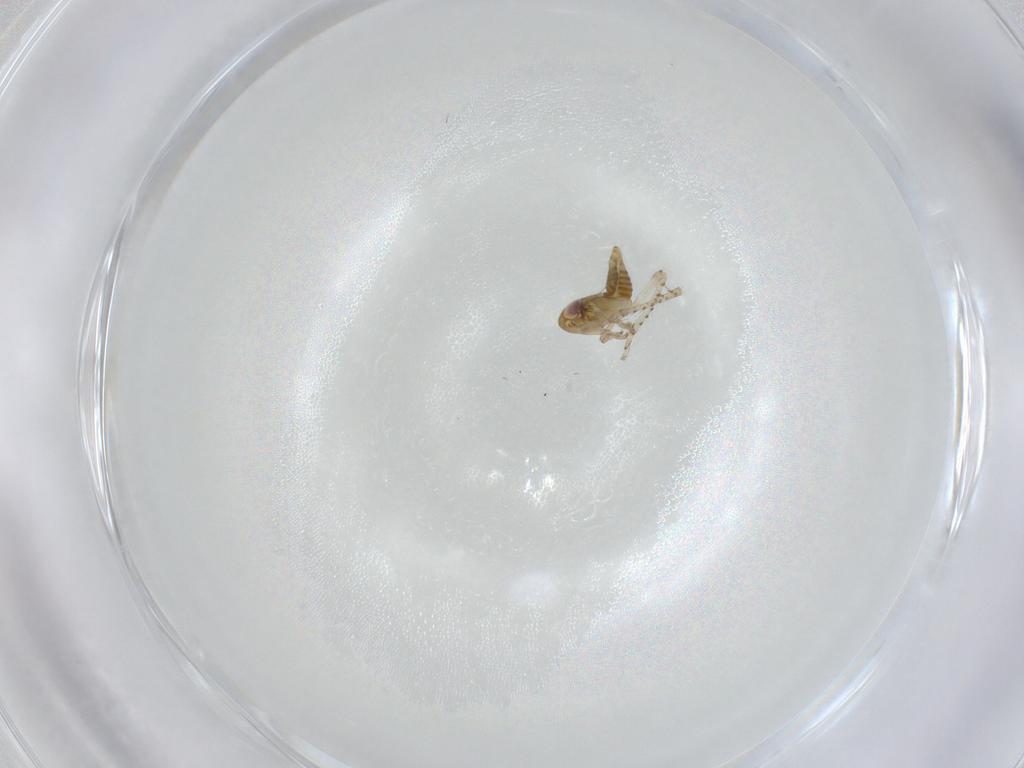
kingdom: Animalia
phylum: Arthropoda
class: Insecta
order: Hemiptera
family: Cicadellidae
